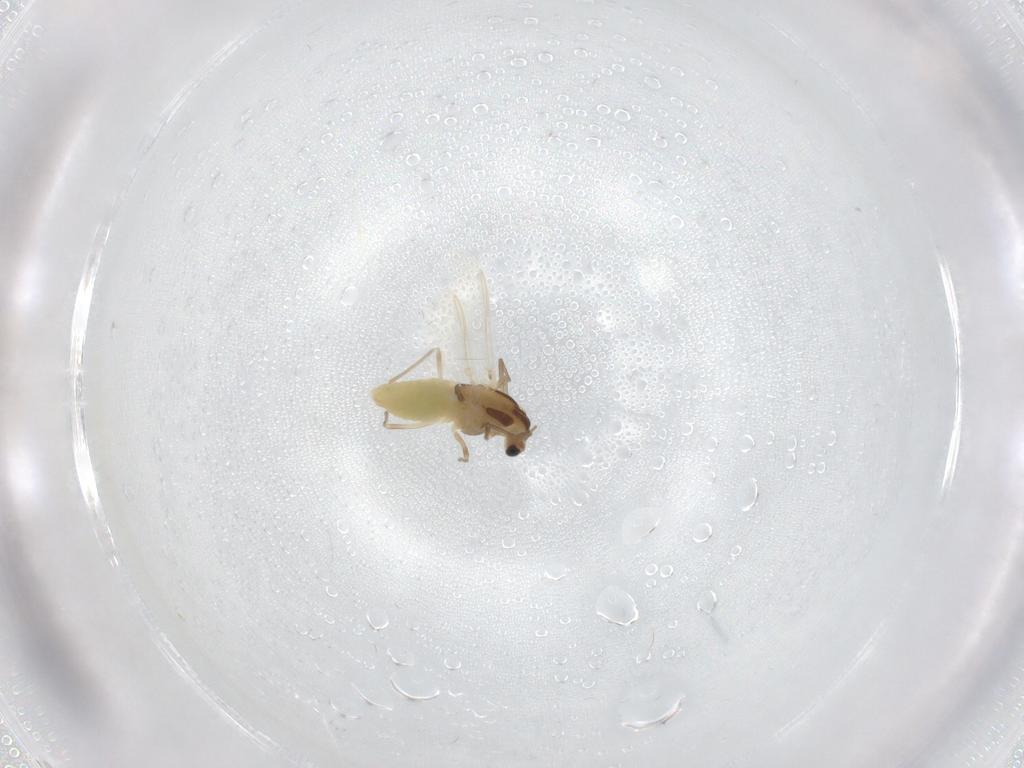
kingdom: Animalia
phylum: Arthropoda
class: Insecta
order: Diptera
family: Chironomidae
